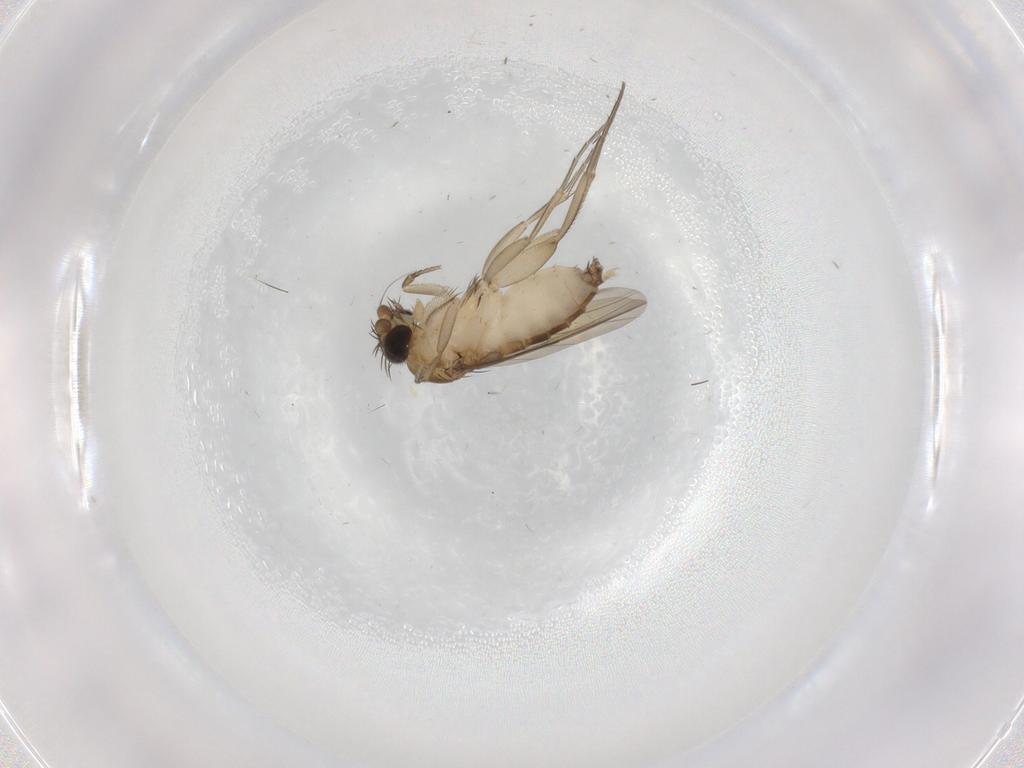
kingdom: Animalia
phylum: Arthropoda
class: Insecta
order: Diptera
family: Phoridae
